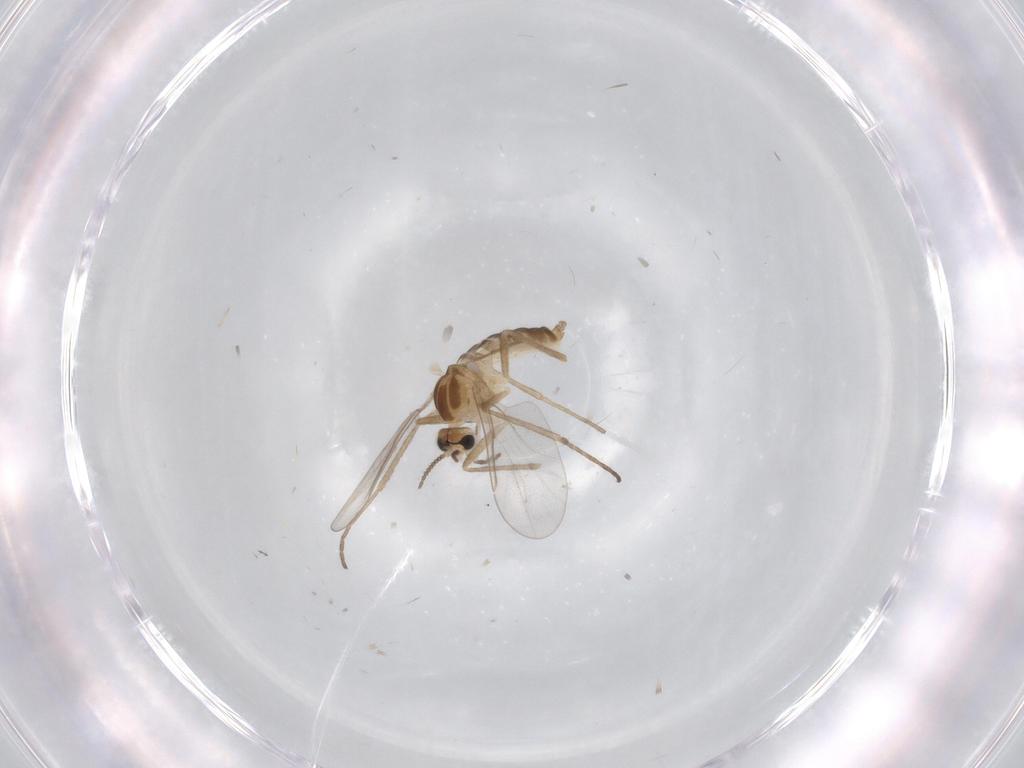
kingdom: Animalia
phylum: Arthropoda
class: Insecta
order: Diptera
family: Cecidomyiidae
